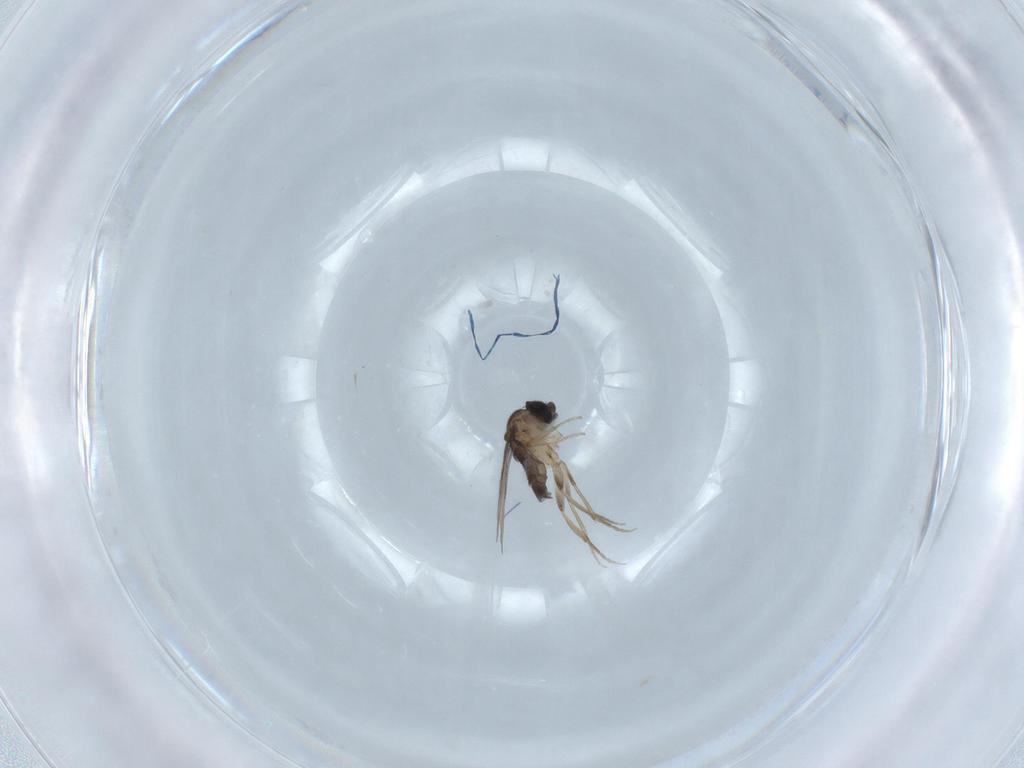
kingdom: Animalia
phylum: Arthropoda
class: Insecta
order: Diptera
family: Phoridae
